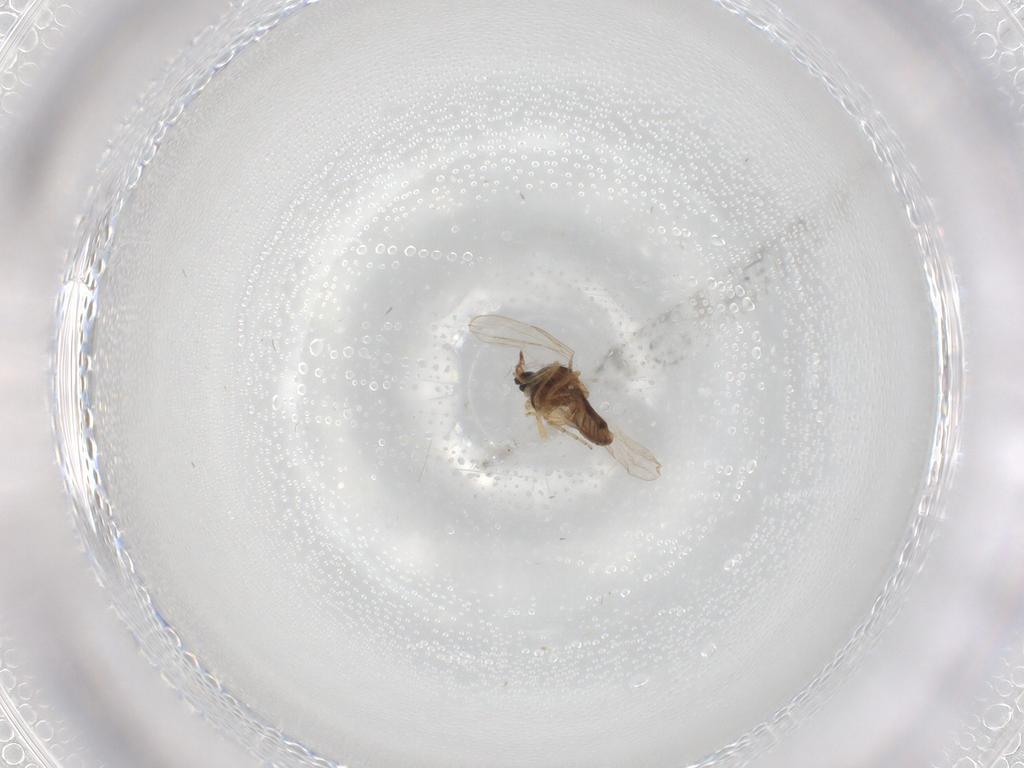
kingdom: Animalia
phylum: Arthropoda
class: Insecta
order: Diptera
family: Ceratopogonidae
